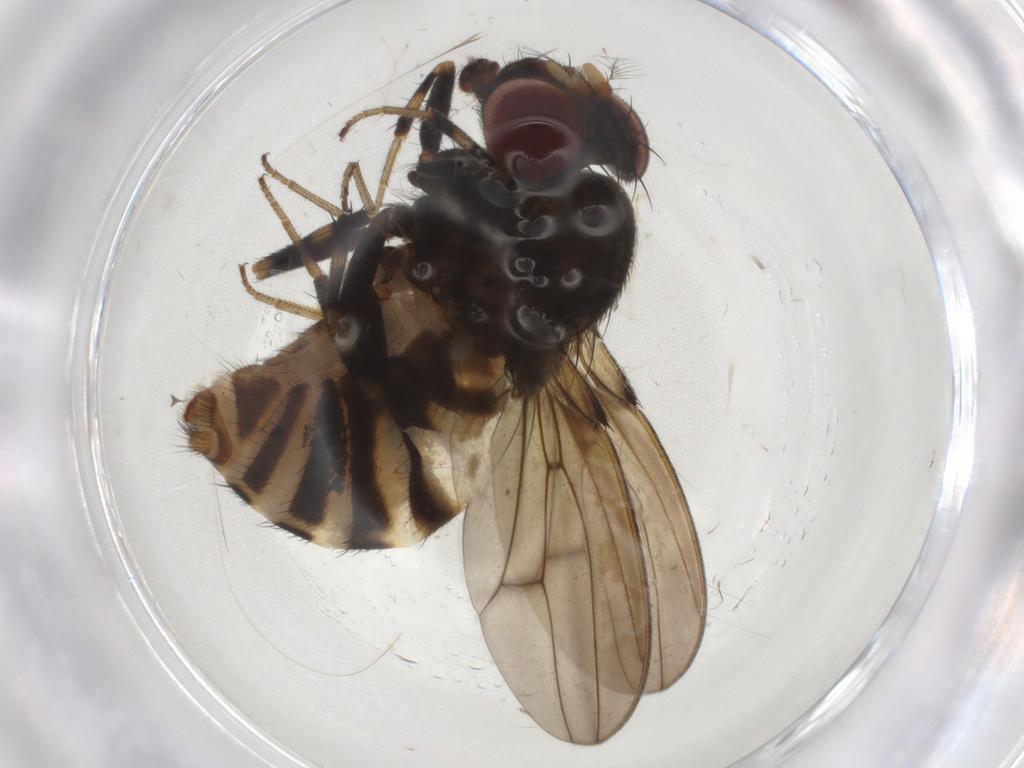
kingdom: Animalia
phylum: Arthropoda
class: Insecta
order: Diptera
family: Drosophilidae
